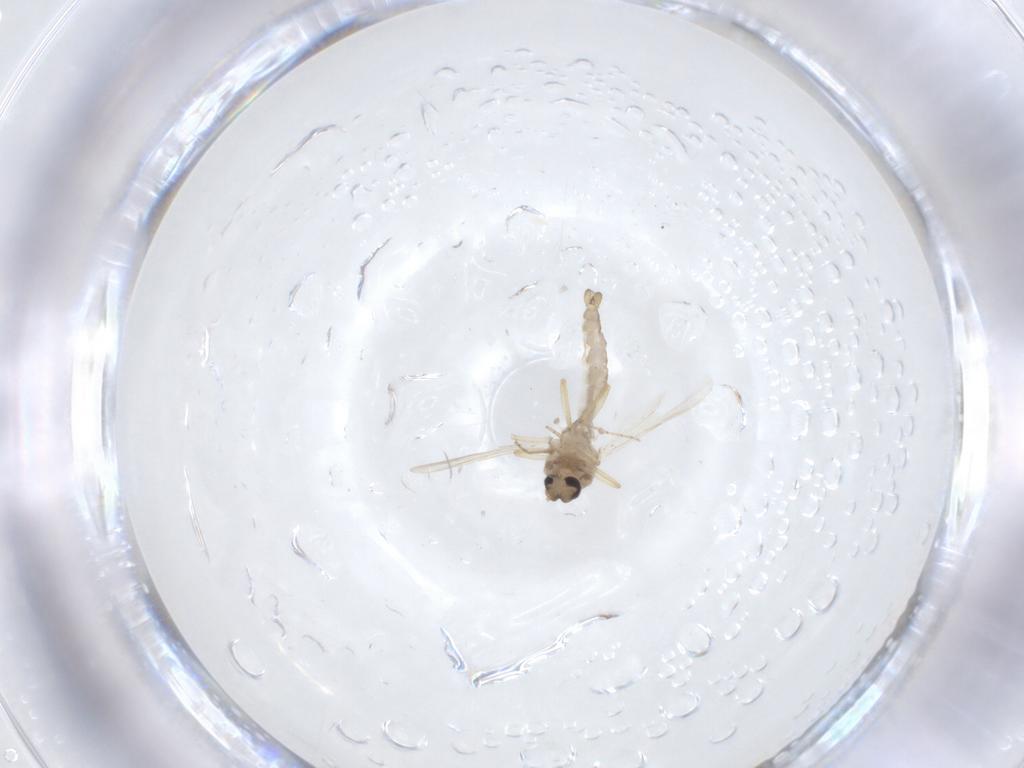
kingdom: Animalia
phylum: Arthropoda
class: Insecta
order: Diptera
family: Ceratopogonidae
